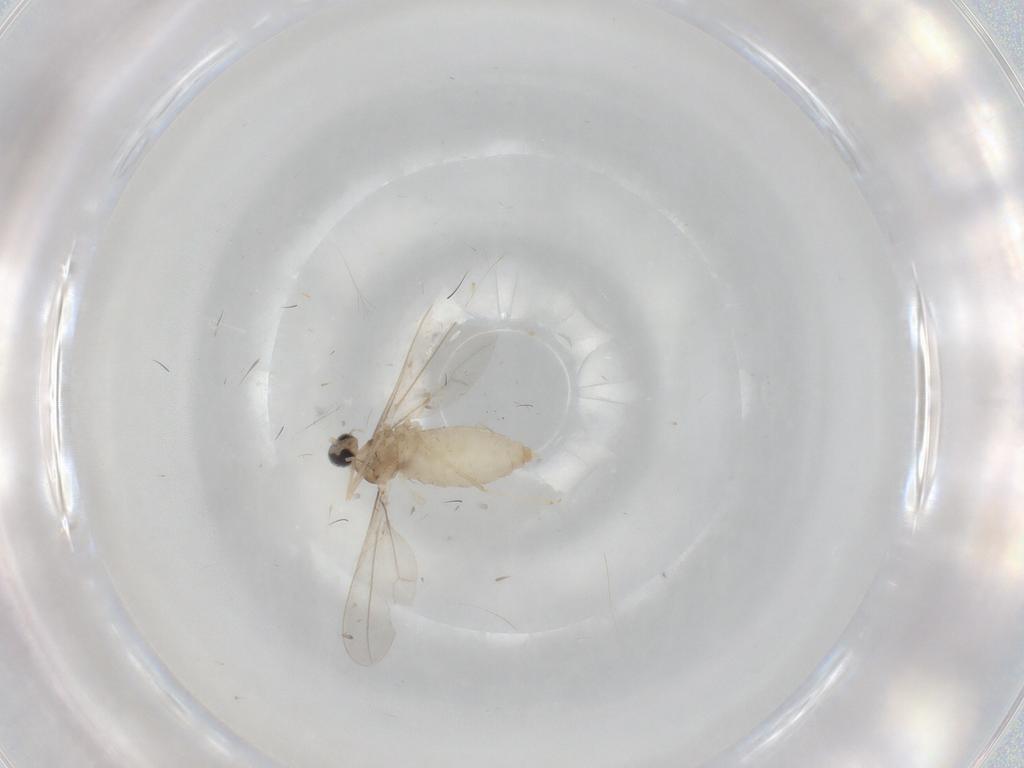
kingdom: Animalia
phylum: Arthropoda
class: Insecta
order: Diptera
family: Cecidomyiidae
